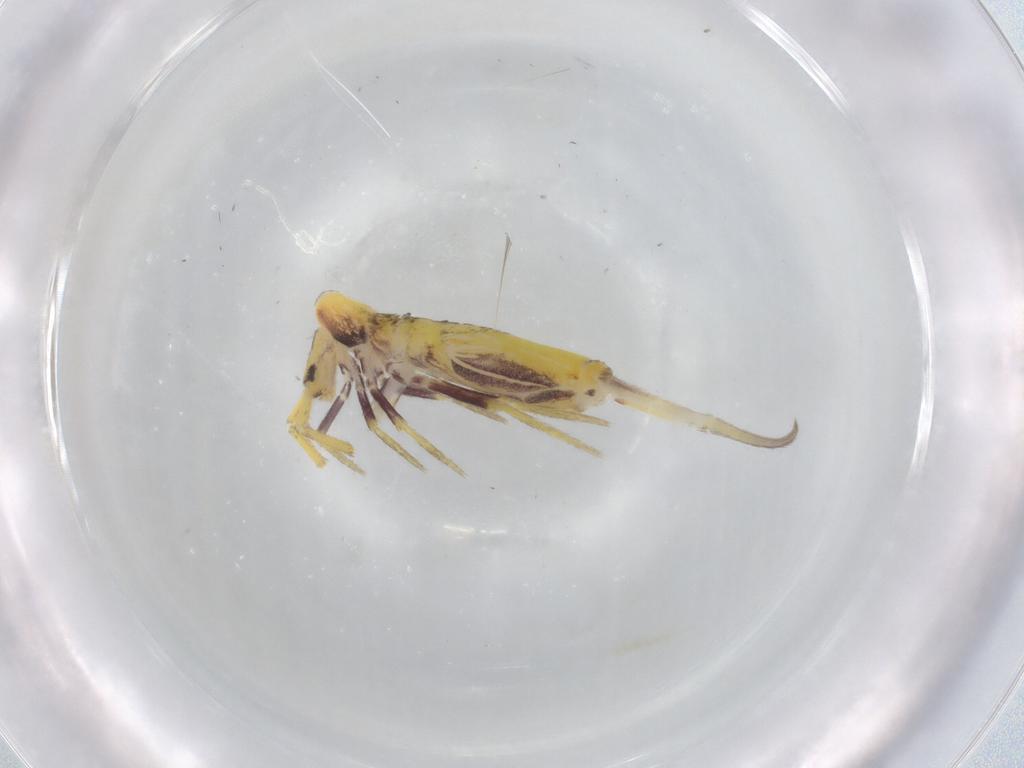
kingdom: Animalia
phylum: Arthropoda
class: Collembola
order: Entomobryomorpha
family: Entomobryidae
